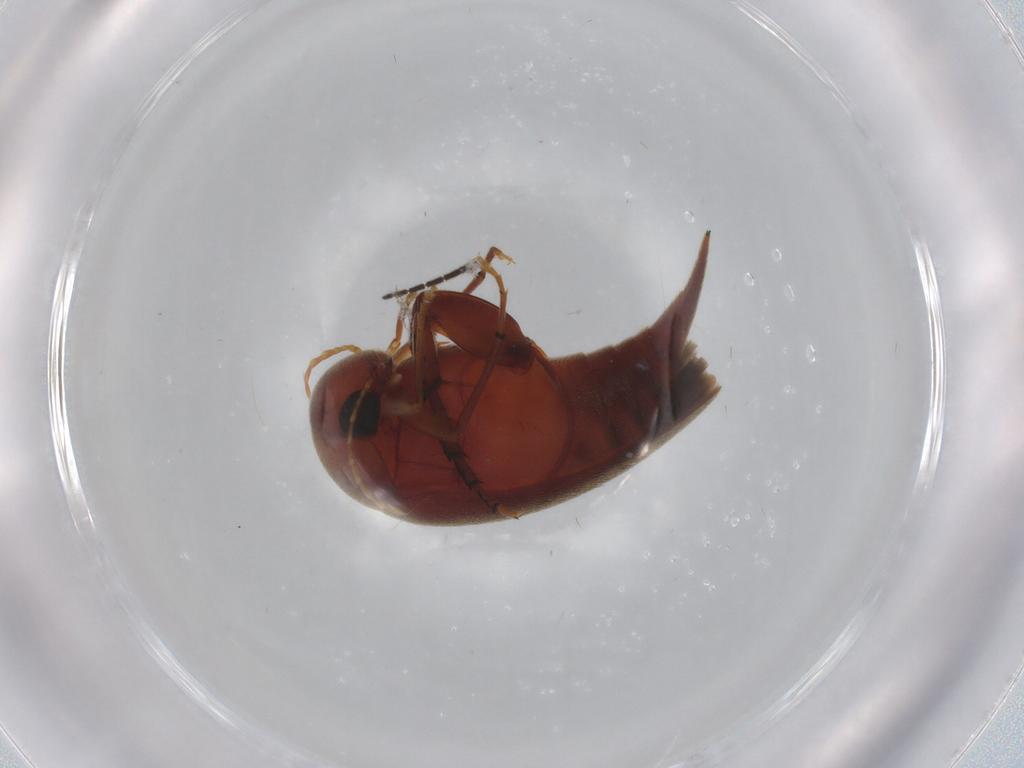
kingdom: Animalia
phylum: Arthropoda
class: Insecta
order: Coleoptera
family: Mordellidae
